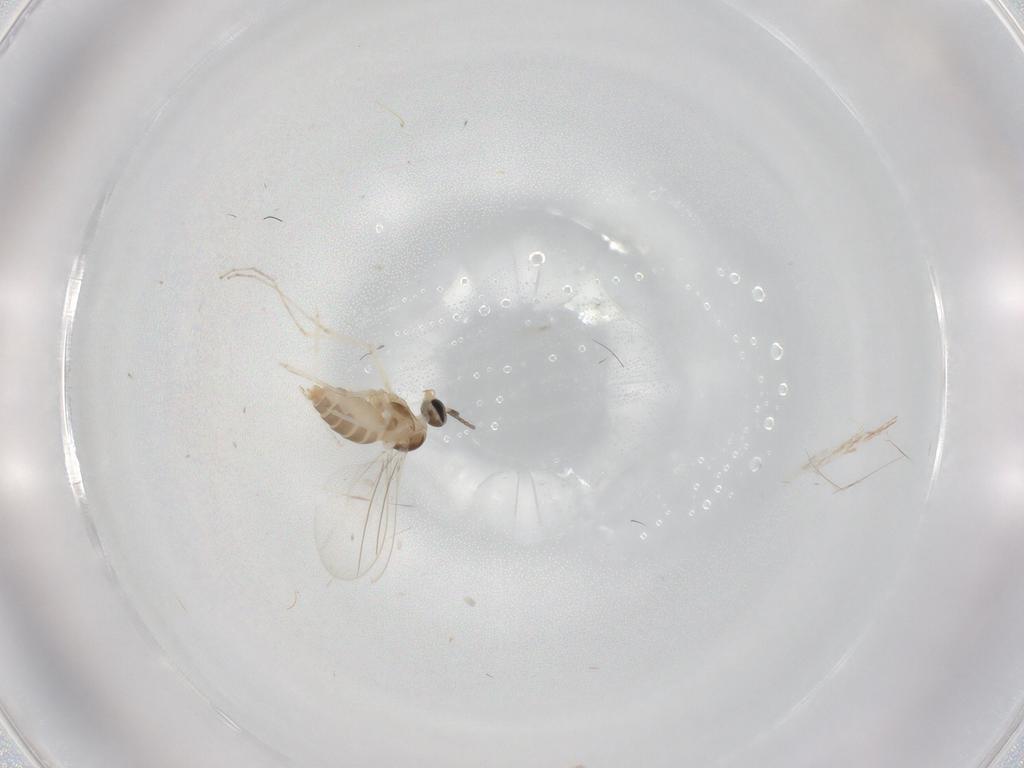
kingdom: Animalia
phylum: Arthropoda
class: Insecta
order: Diptera
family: Cecidomyiidae
